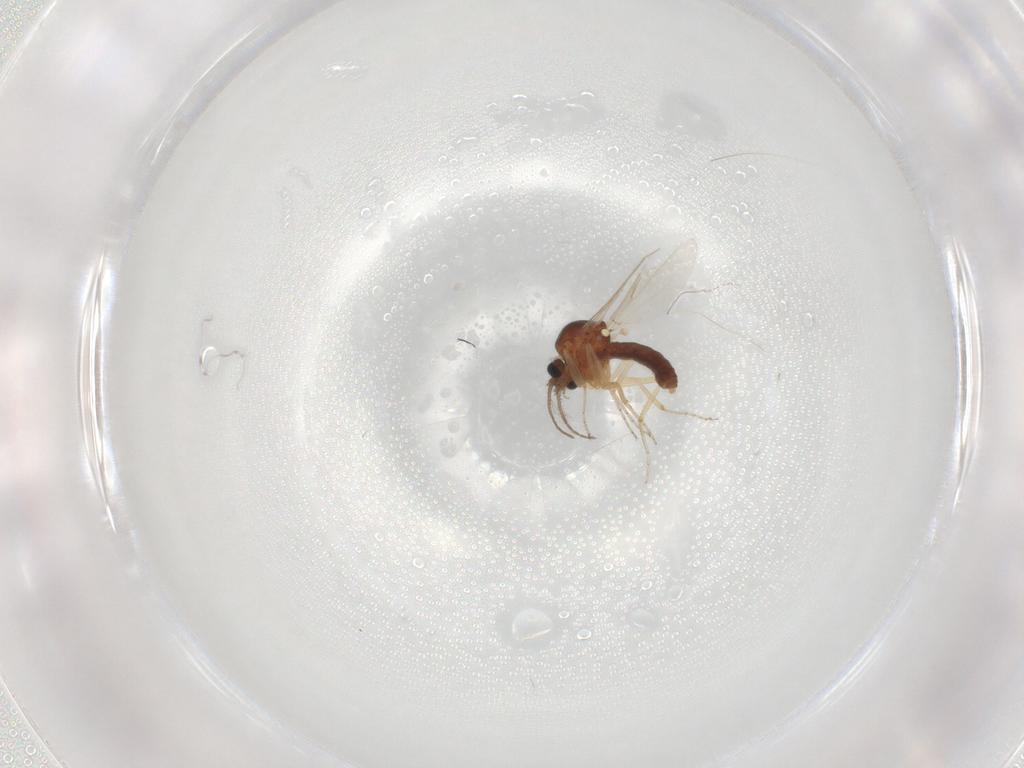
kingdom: Animalia
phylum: Arthropoda
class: Insecta
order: Diptera
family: Ceratopogonidae
